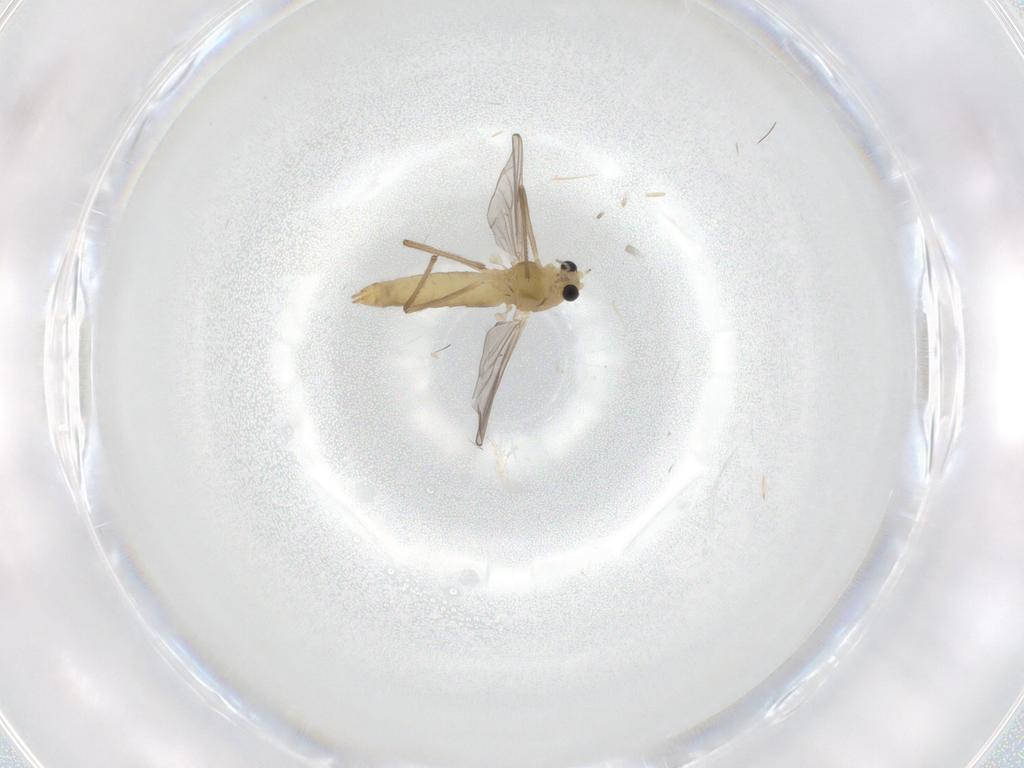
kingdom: Animalia
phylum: Arthropoda
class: Insecta
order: Diptera
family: Chironomidae
